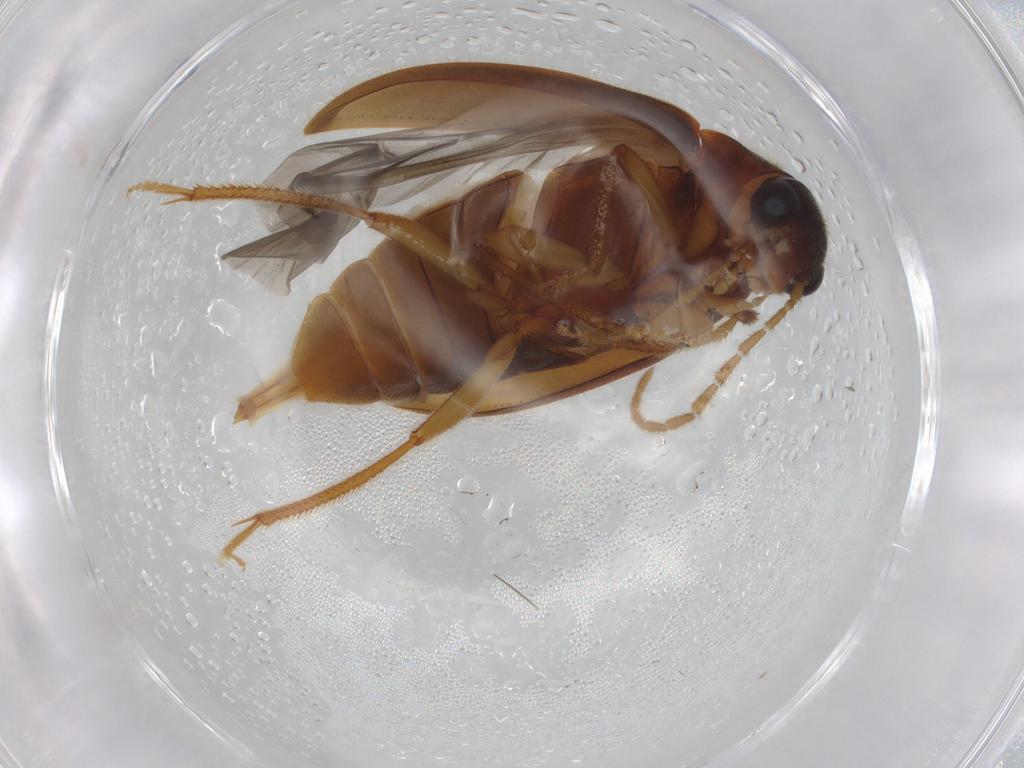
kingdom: Animalia
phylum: Arthropoda
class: Insecta
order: Coleoptera
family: Ptilodactylidae
